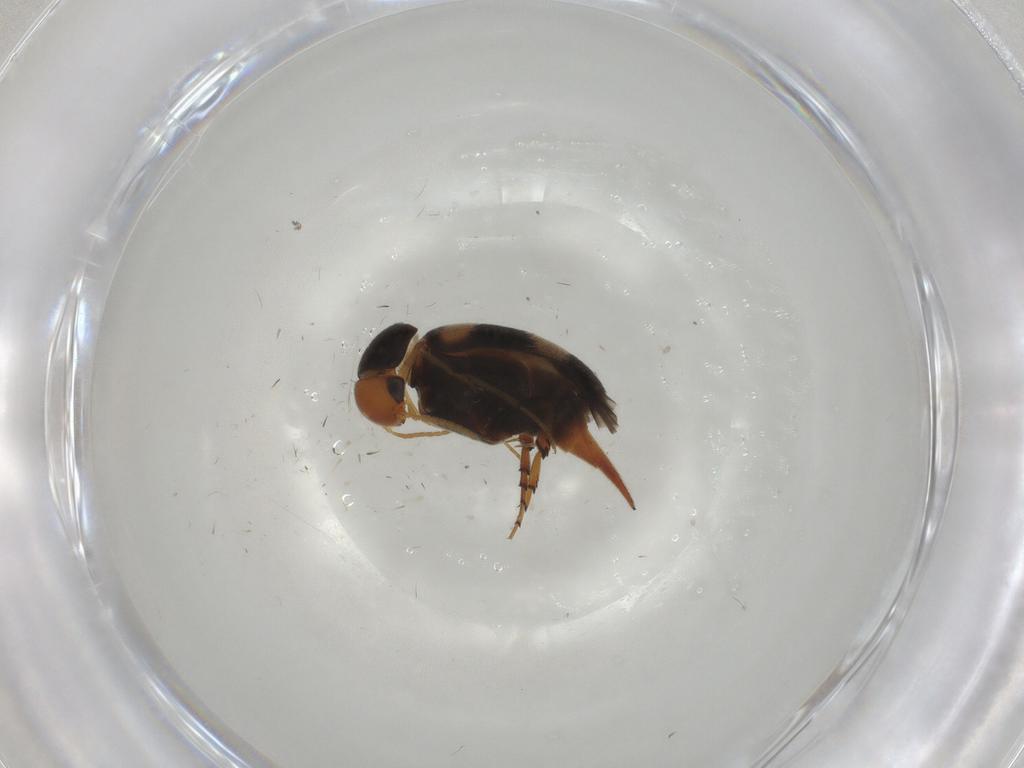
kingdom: Animalia
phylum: Arthropoda
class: Insecta
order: Coleoptera
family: Mordellidae
